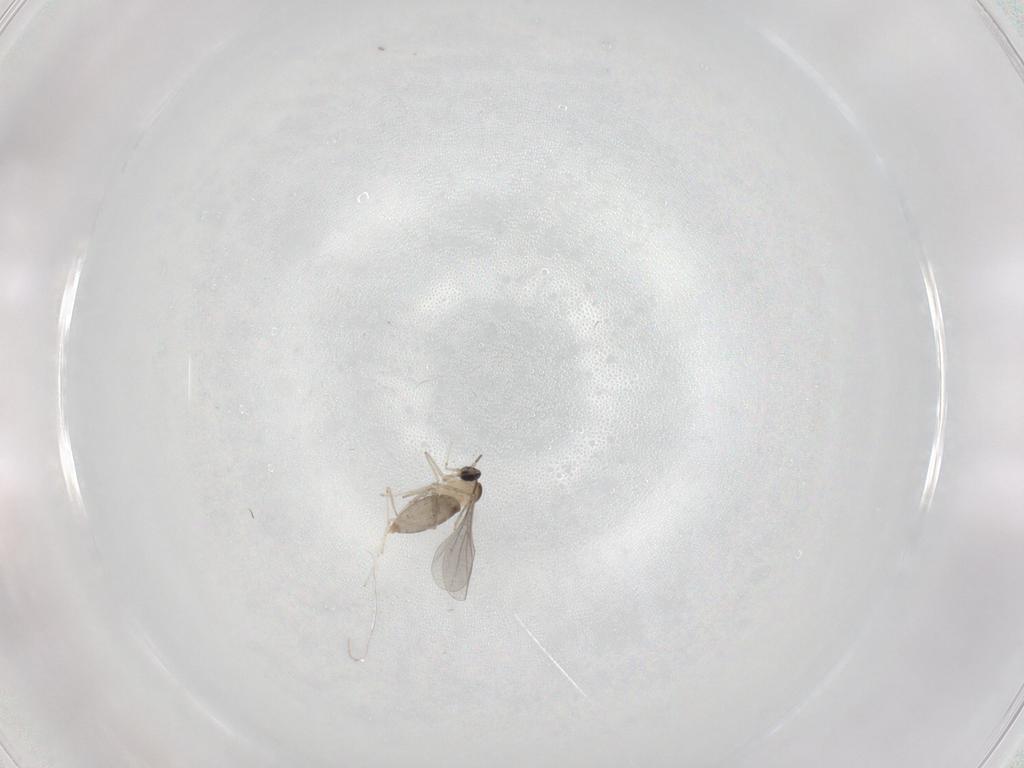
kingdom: Animalia
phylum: Arthropoda
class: Insecta
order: Diptera
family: Cecidomyiidae
